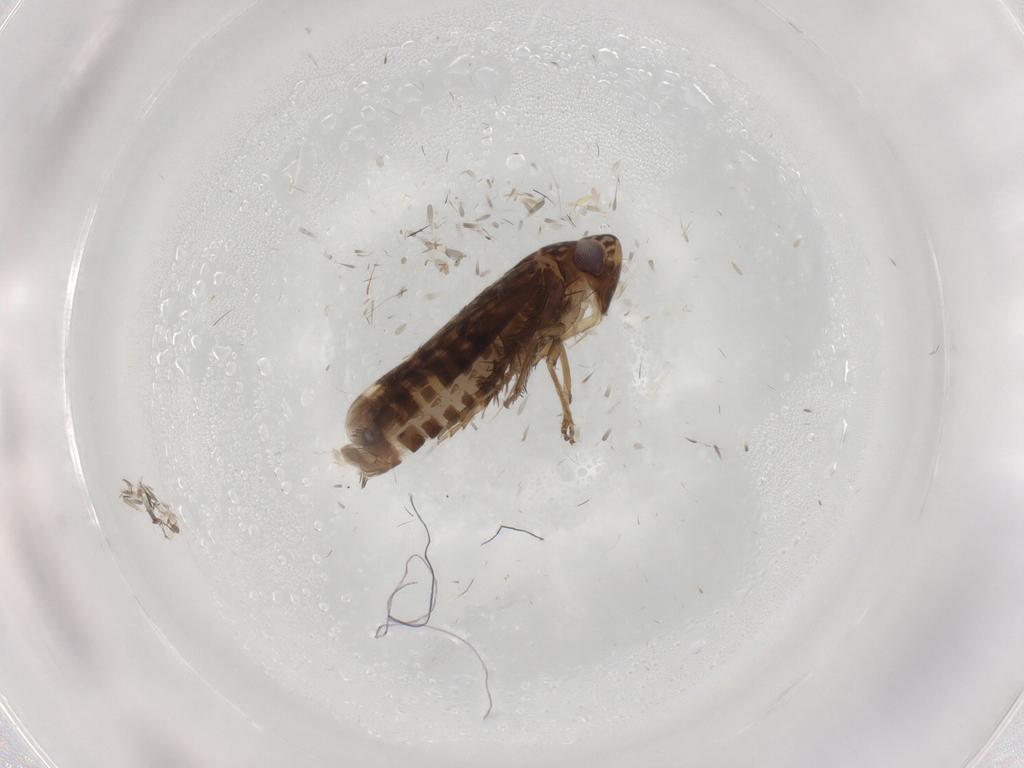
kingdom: Animalia
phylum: Arthropoda
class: Insecta
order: Hemiptera
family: Cicadellidae
